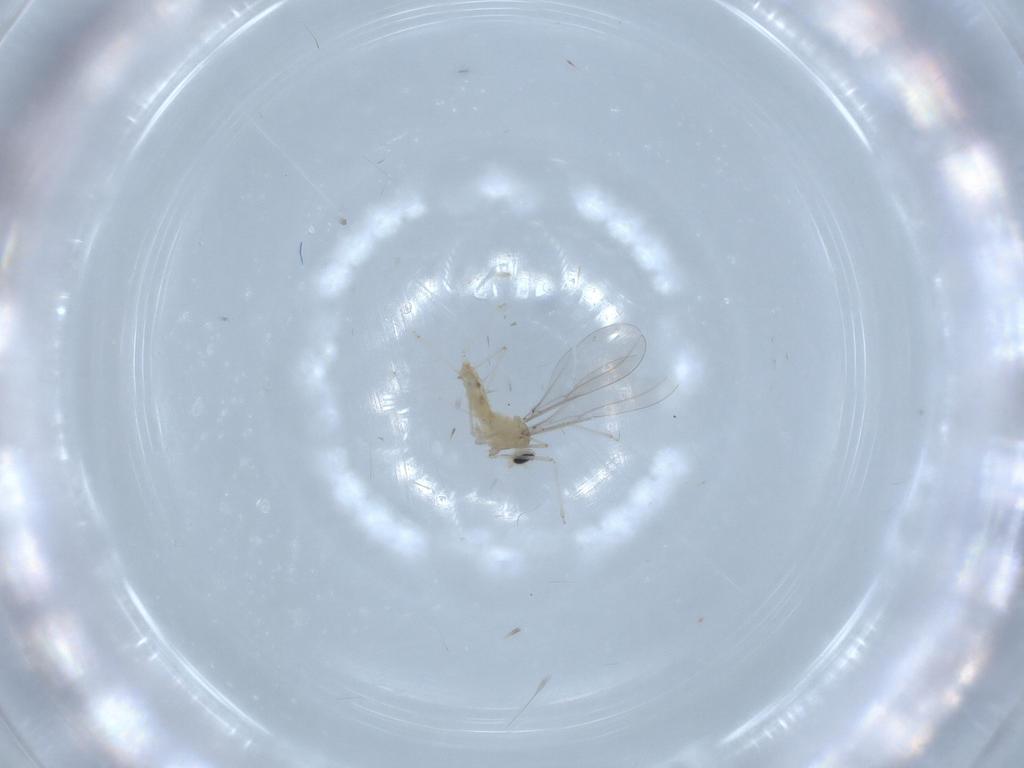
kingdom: Animalia
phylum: Arthropoda
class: Insecta
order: Diptera
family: Cecidomyiidae
